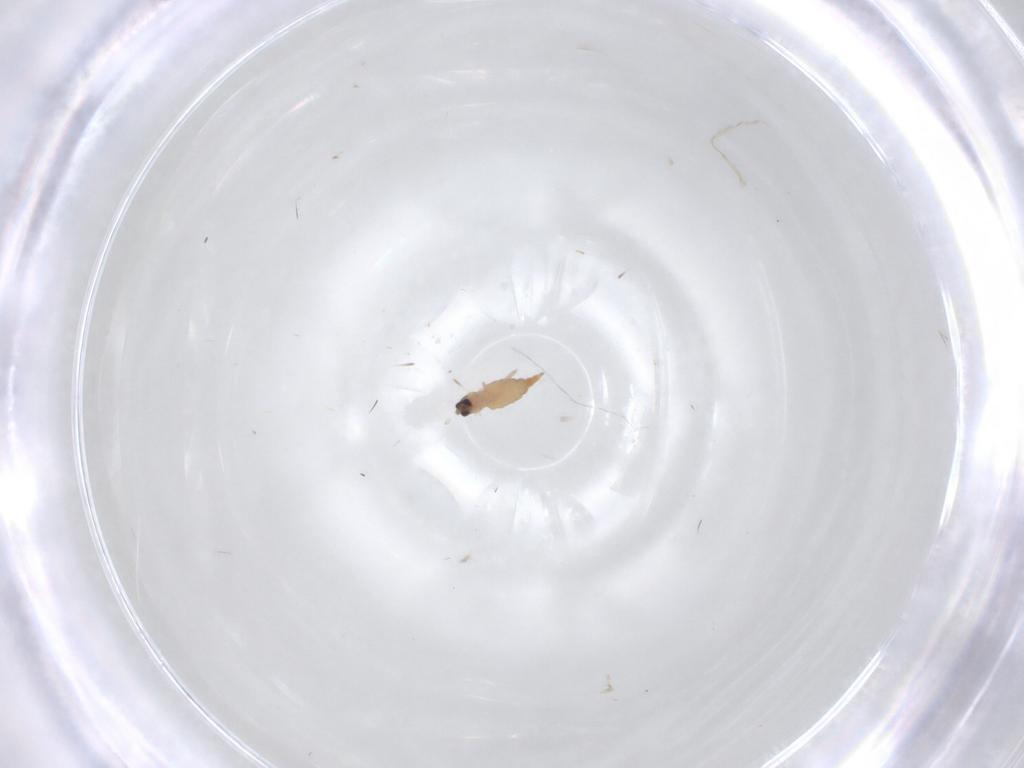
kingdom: Animalia
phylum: Arthropoda
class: Insecta
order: Diptera
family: Cecidomyiidae
